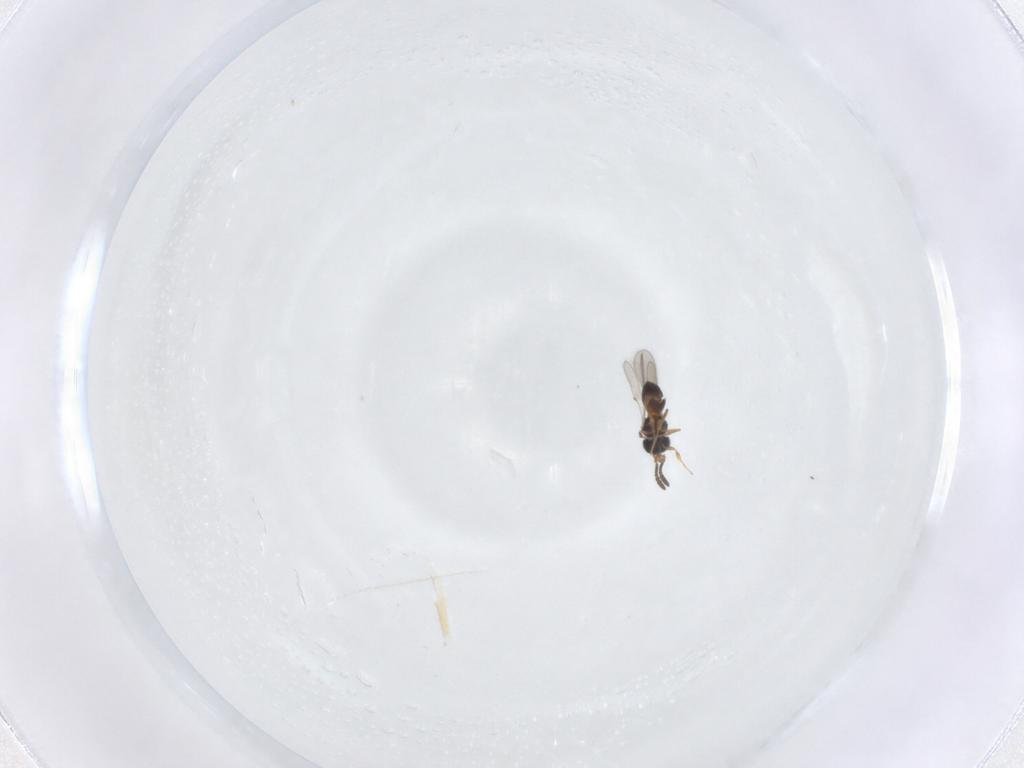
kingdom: Animalia
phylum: Arthropoda
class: Insecta
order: Hymenoptera
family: Scelionidae
